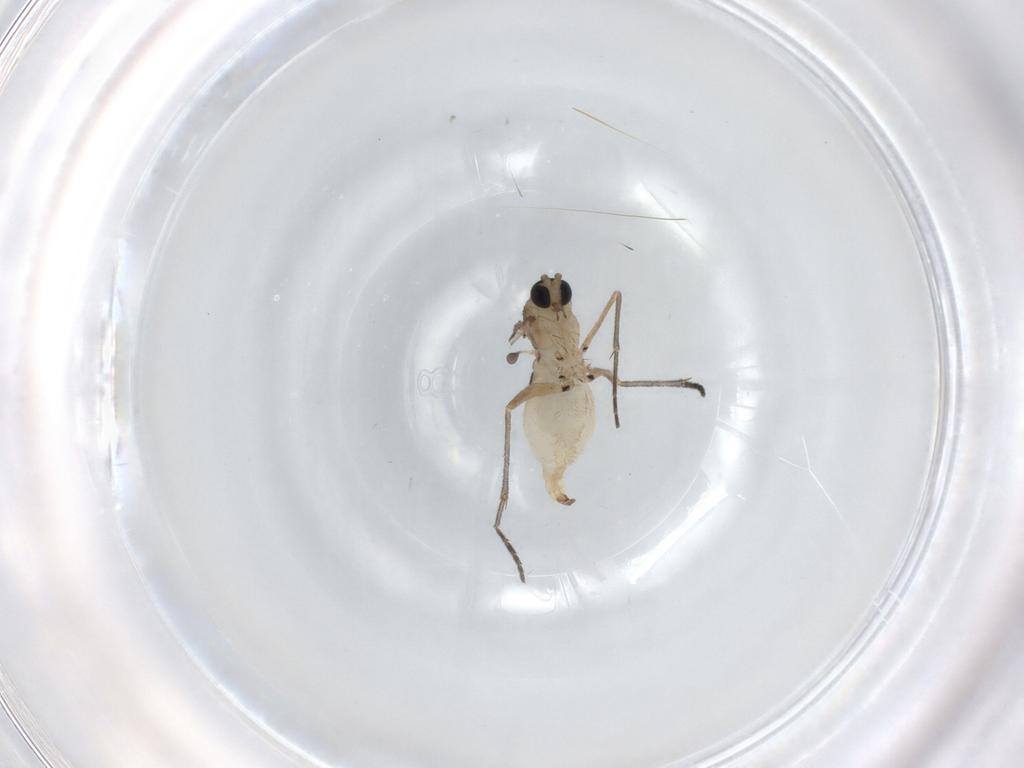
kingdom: Animalia
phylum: Arthropoda
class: Insecta
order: Diptera
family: Sciaridae
